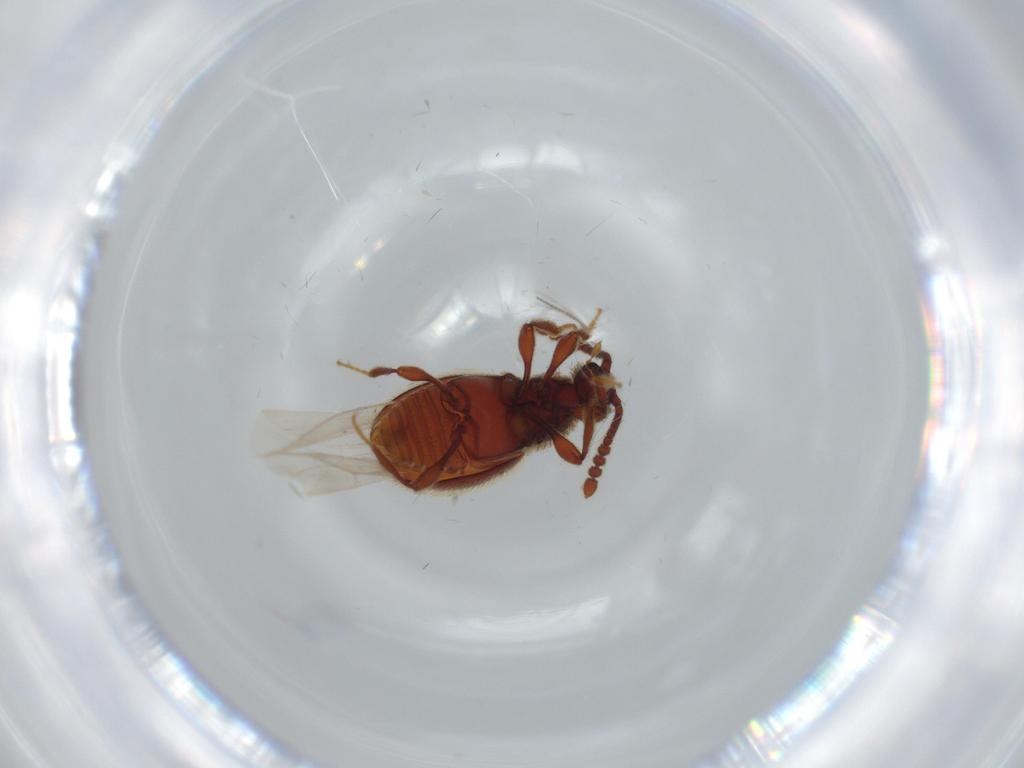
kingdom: Animalia
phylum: Arthropoda
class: Insecta
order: Coleoptera
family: Staphylinidae
